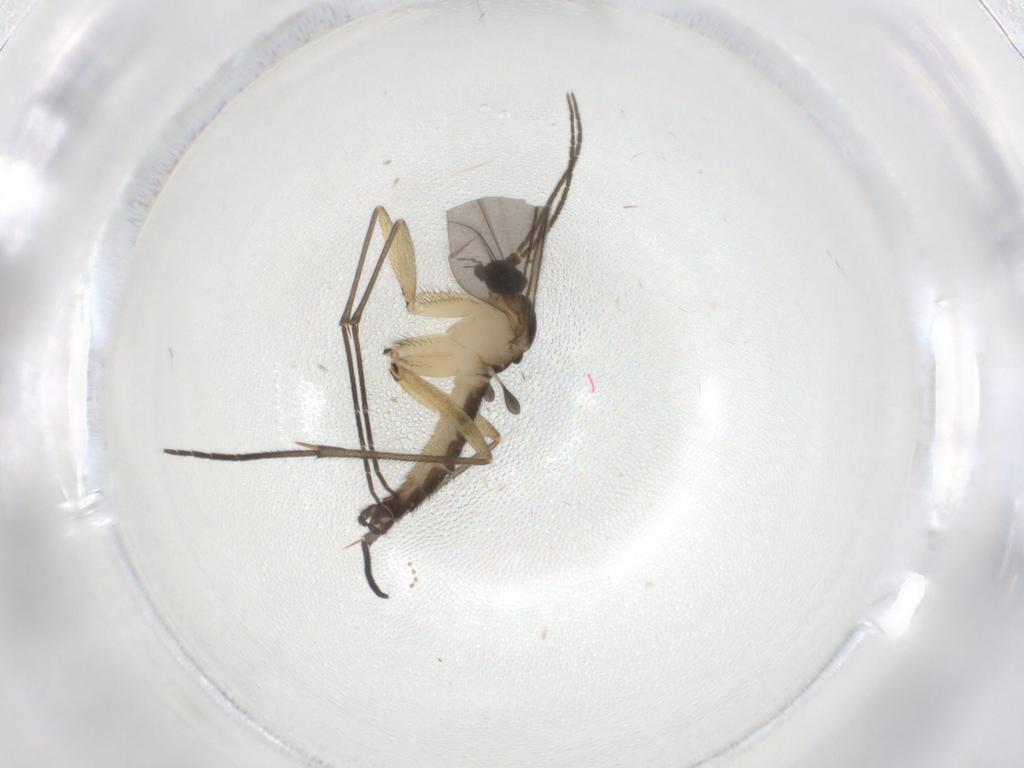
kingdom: Animalia
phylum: Arthropoda
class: Insecta
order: Diptera
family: Sciaridae
